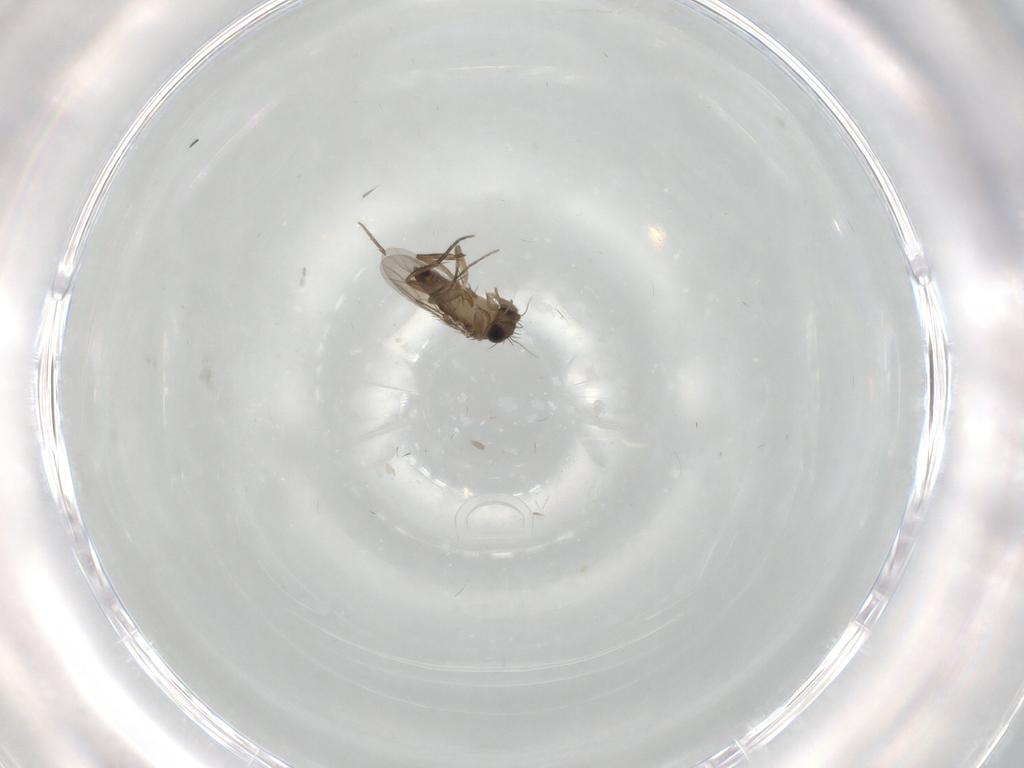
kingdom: Animalia
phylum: Arthropoda
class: Insecta
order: Diptera
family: Phoridae
